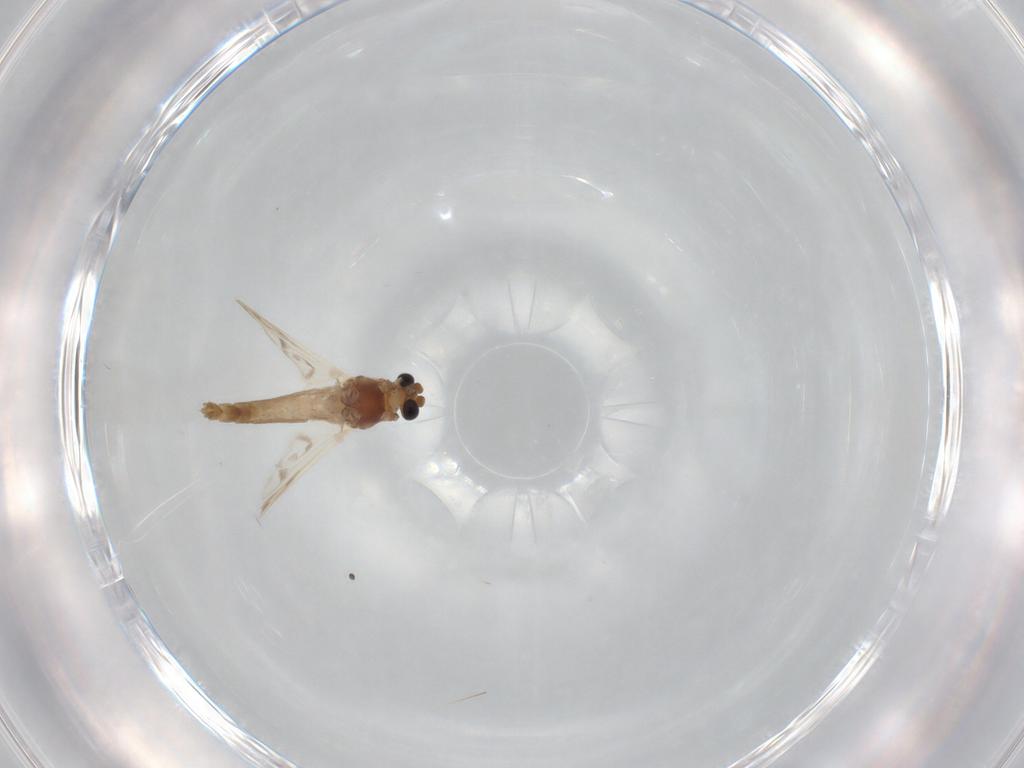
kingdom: Animalia
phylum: Arthropoda
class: Insecta
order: Diptera
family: Chironomidae
